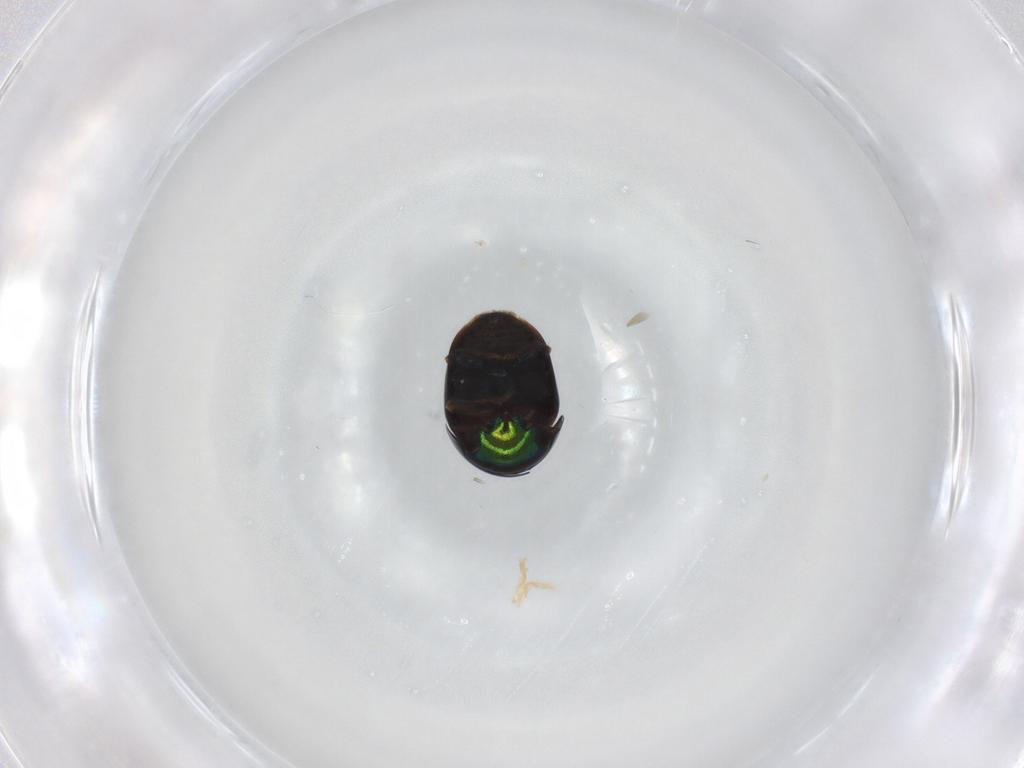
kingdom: Animalia
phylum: Arthropoda
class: Insecta
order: Coleoptera
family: Cybocephalidae
